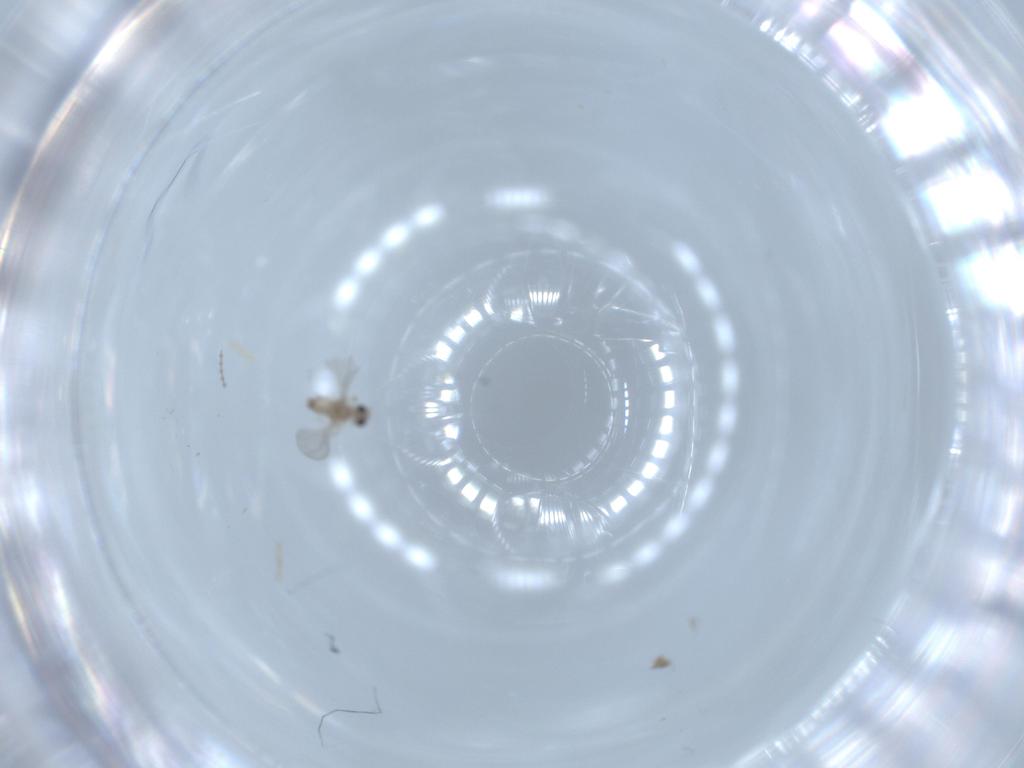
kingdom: Animalia
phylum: Arthropoda
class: Insecta
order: Diptera
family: Cecidomyiidae
